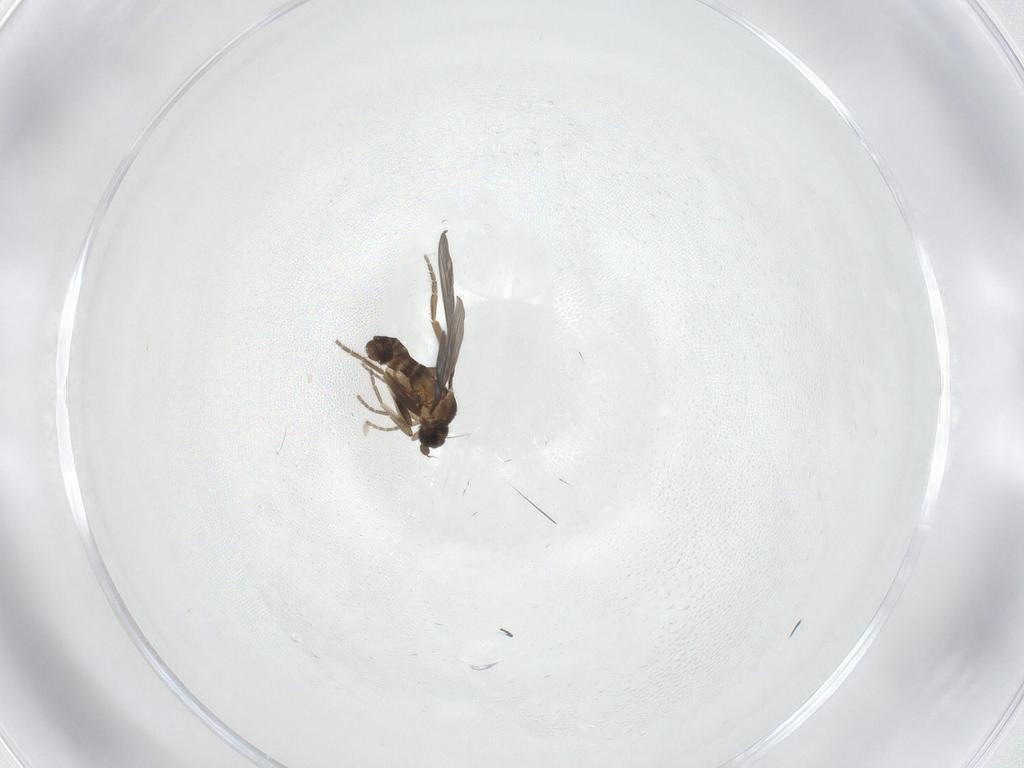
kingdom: Animalia
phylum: Arthropoda
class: Insecta
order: Diptera
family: Phoridae
